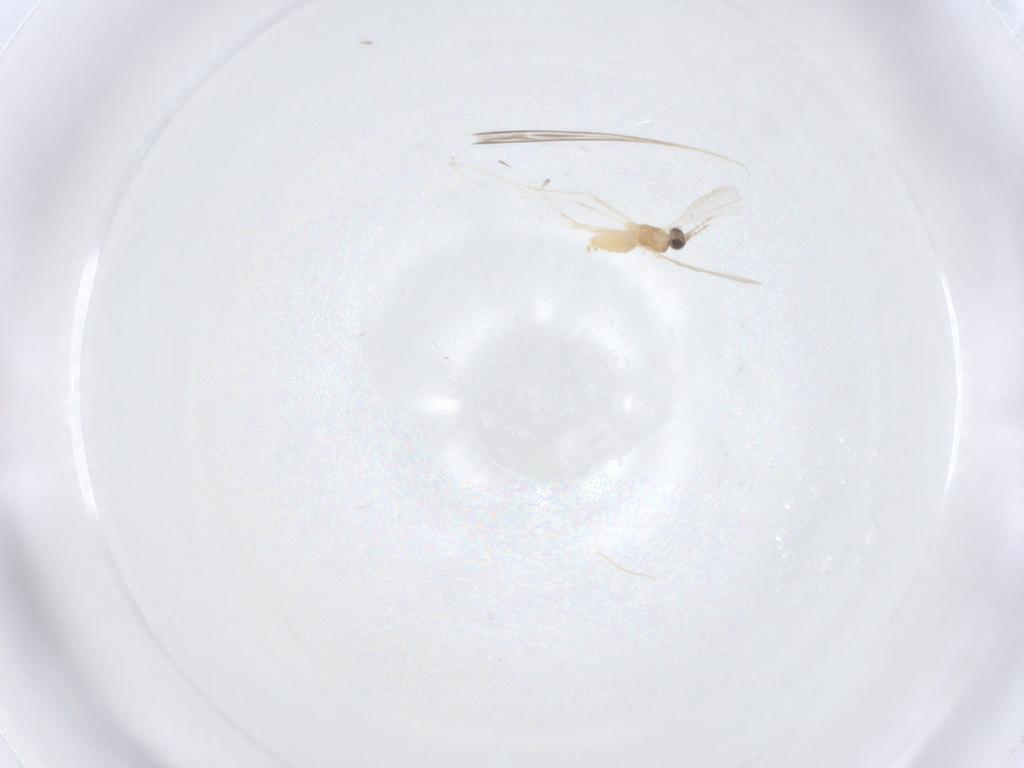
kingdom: Animalia
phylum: Arthropoda
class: Insecta
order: Diptera
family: Cecidomyiidae
